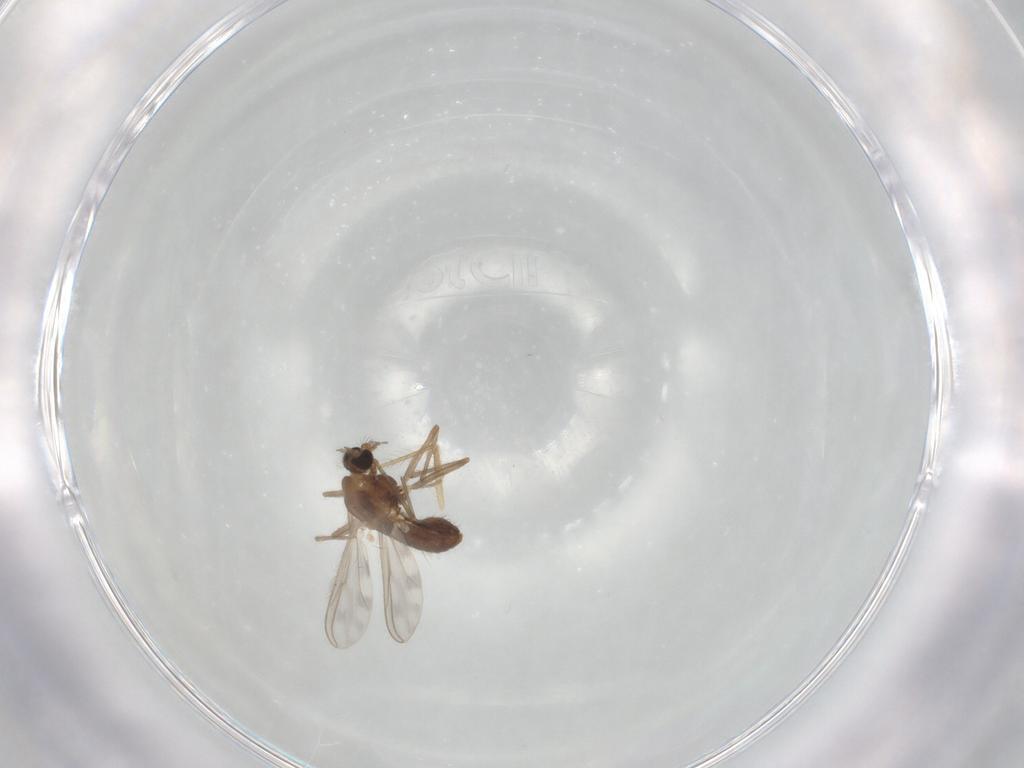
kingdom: Animalia
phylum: Arthropoda
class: Insecta
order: Diptera
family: Chironomidae
